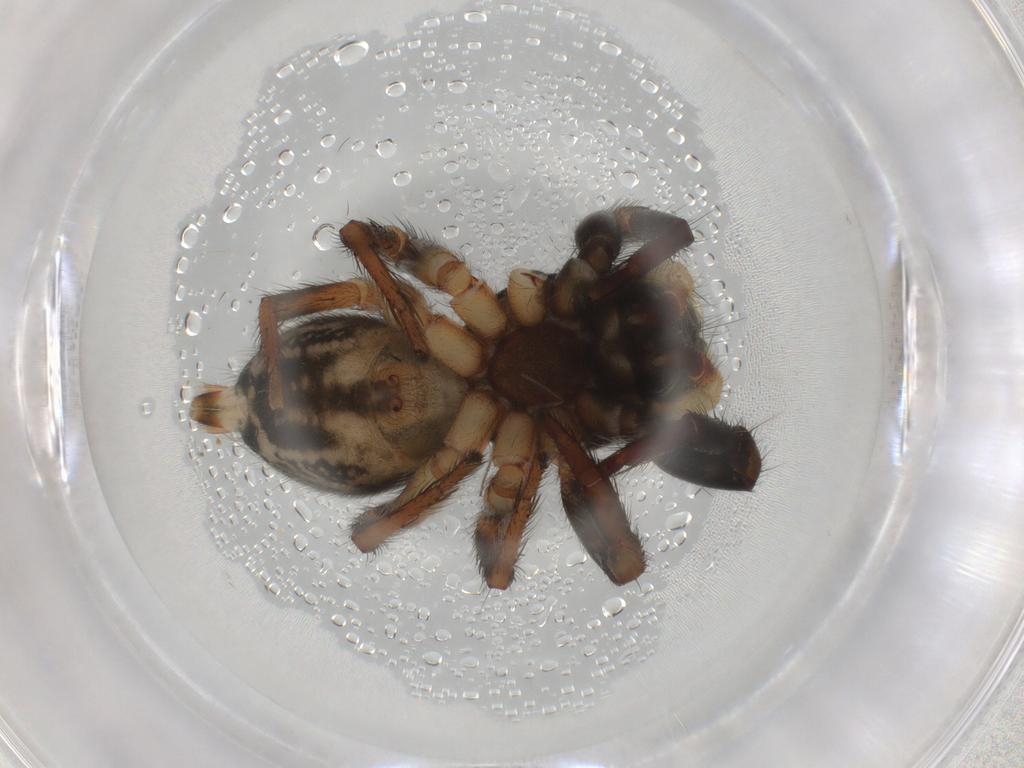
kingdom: Animalia
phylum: Arthropoda
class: Arachnida
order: Araneae
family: Salticidae
